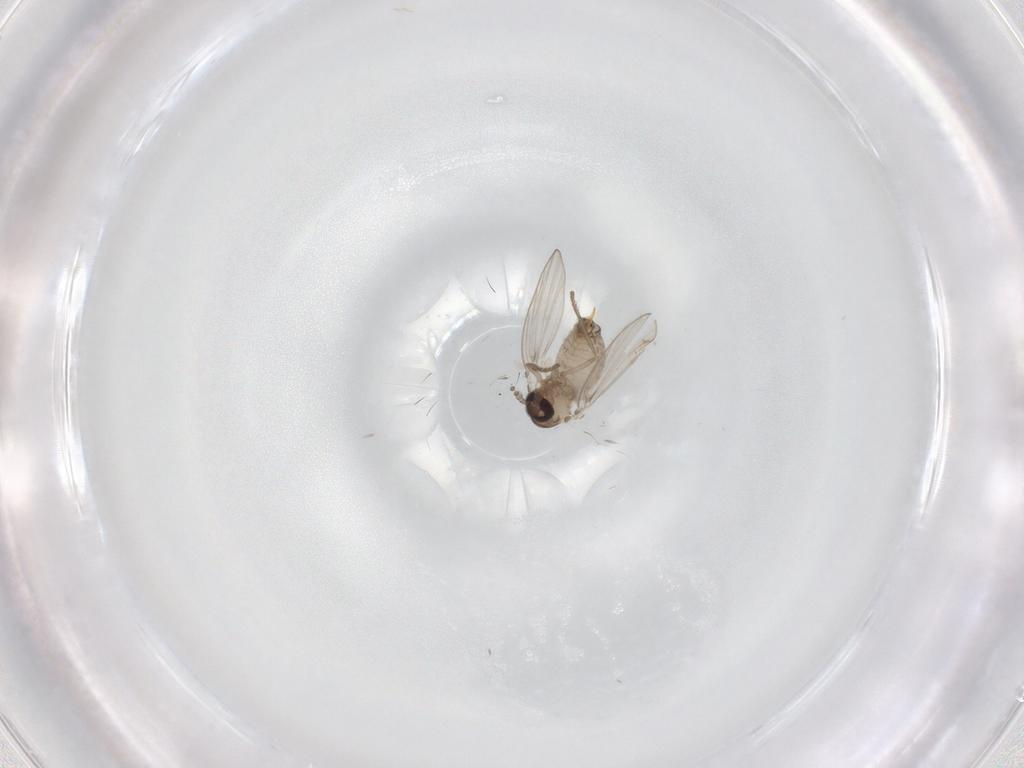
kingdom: Animalia
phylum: Arthropoda
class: Insecta
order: Diptera
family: Psychodidae
